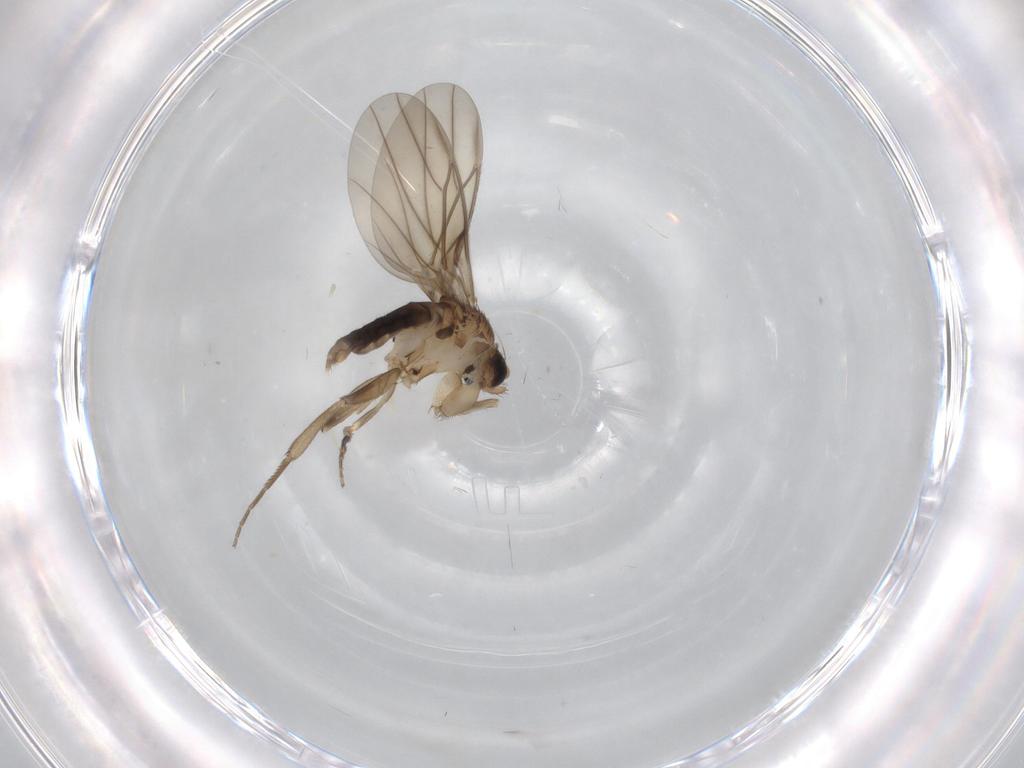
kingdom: Animalia
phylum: Arthropoda
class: Insecta
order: Diptera
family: Phoridae
